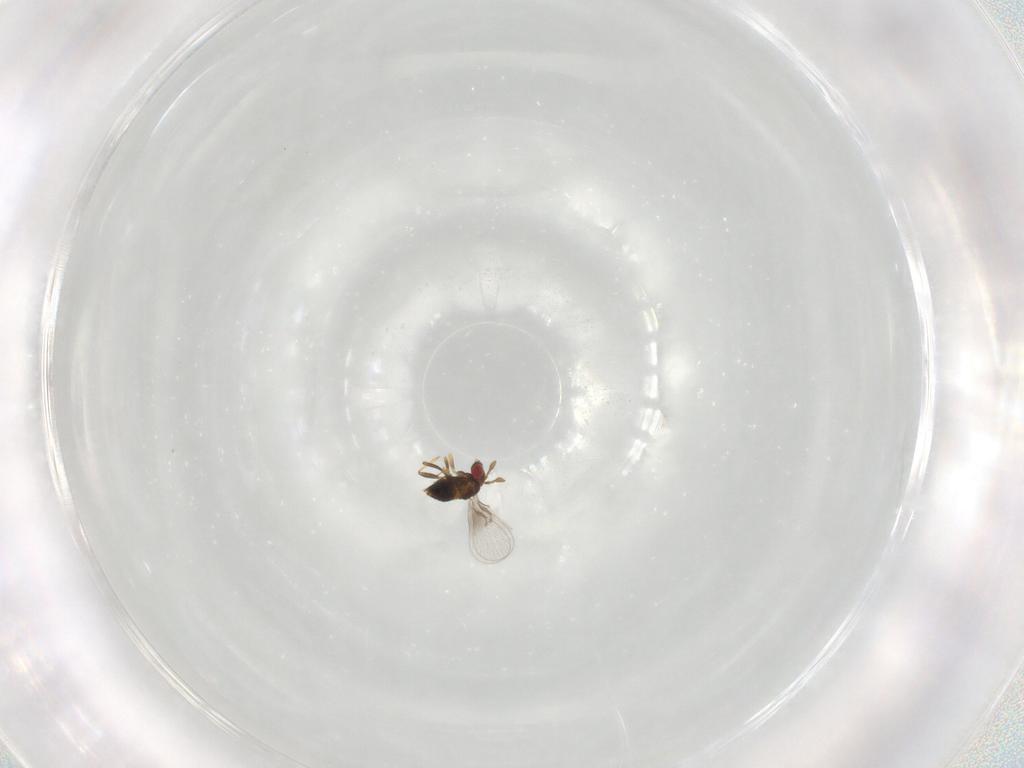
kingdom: Animalia
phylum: Arthropoda
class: Insecta
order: Hymenoptera
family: Trichogrammatidae
